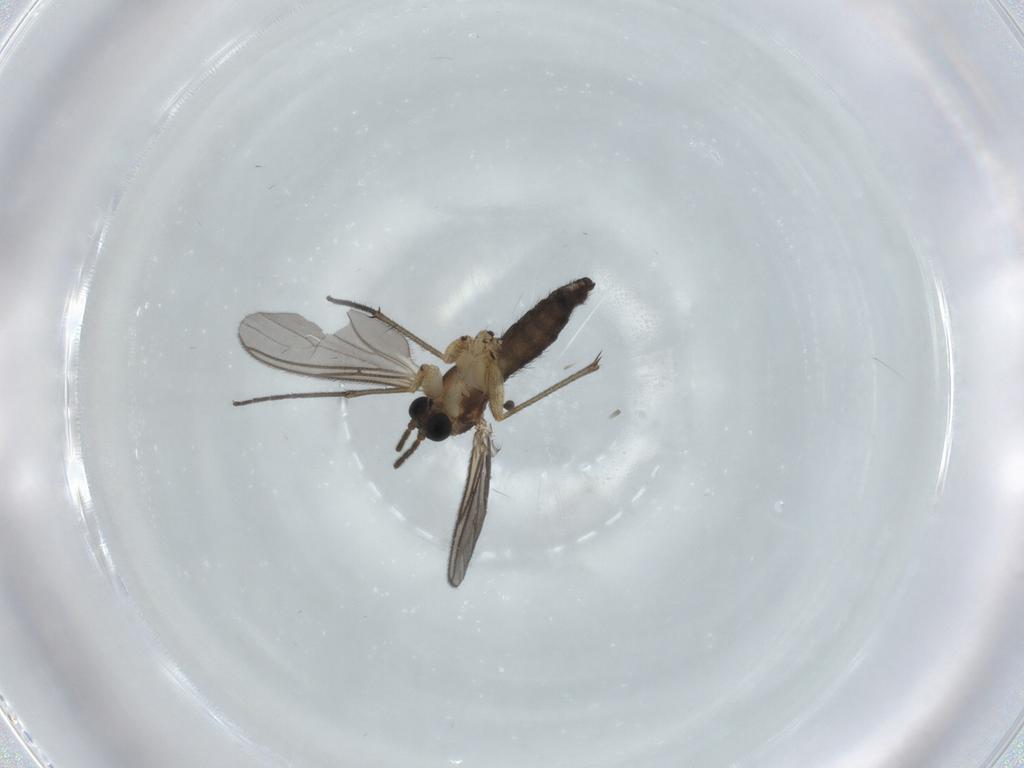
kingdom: Animalia
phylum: Arthropoda
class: Insecta
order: Diptera
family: Sciaridae
